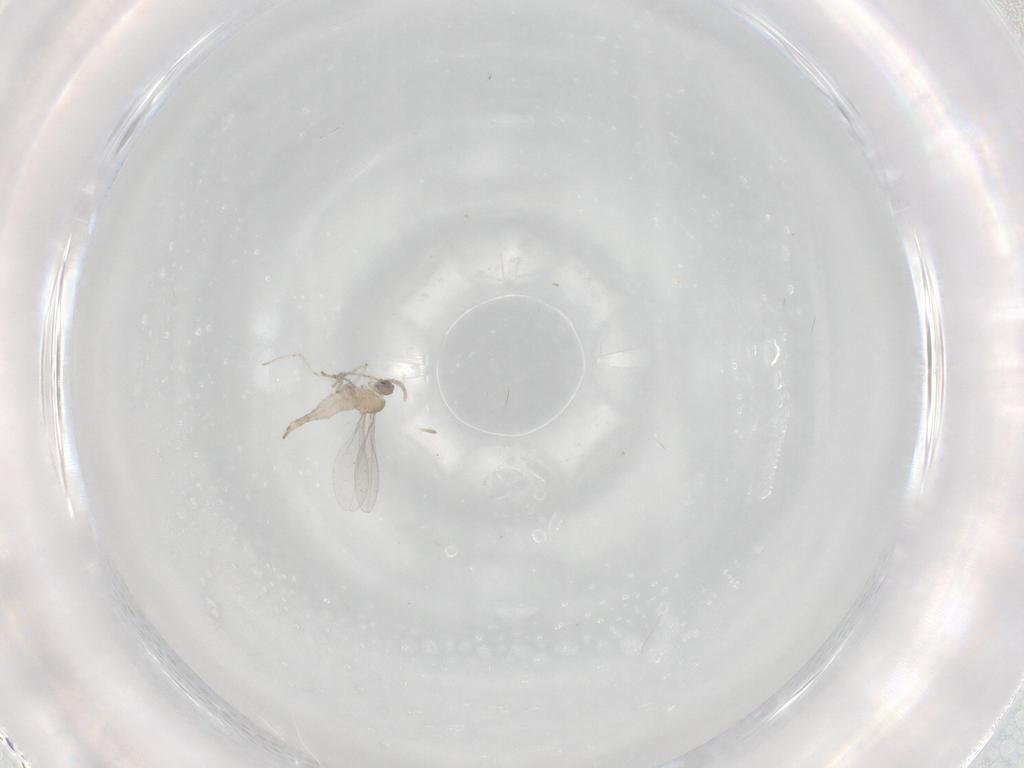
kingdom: Animalia
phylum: Arthropoda
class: Insecta
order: Diptera
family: Cecidomyiidae
